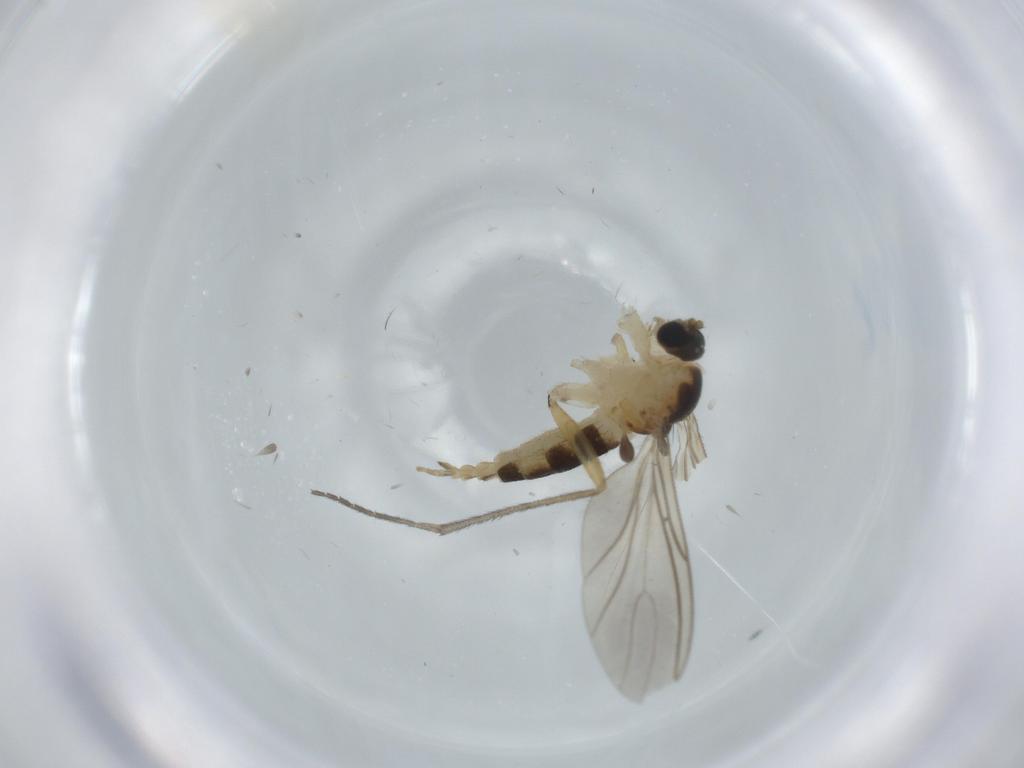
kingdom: Animalia
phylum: Arthropoda
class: Insecta
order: Diptera
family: Sciaridae
